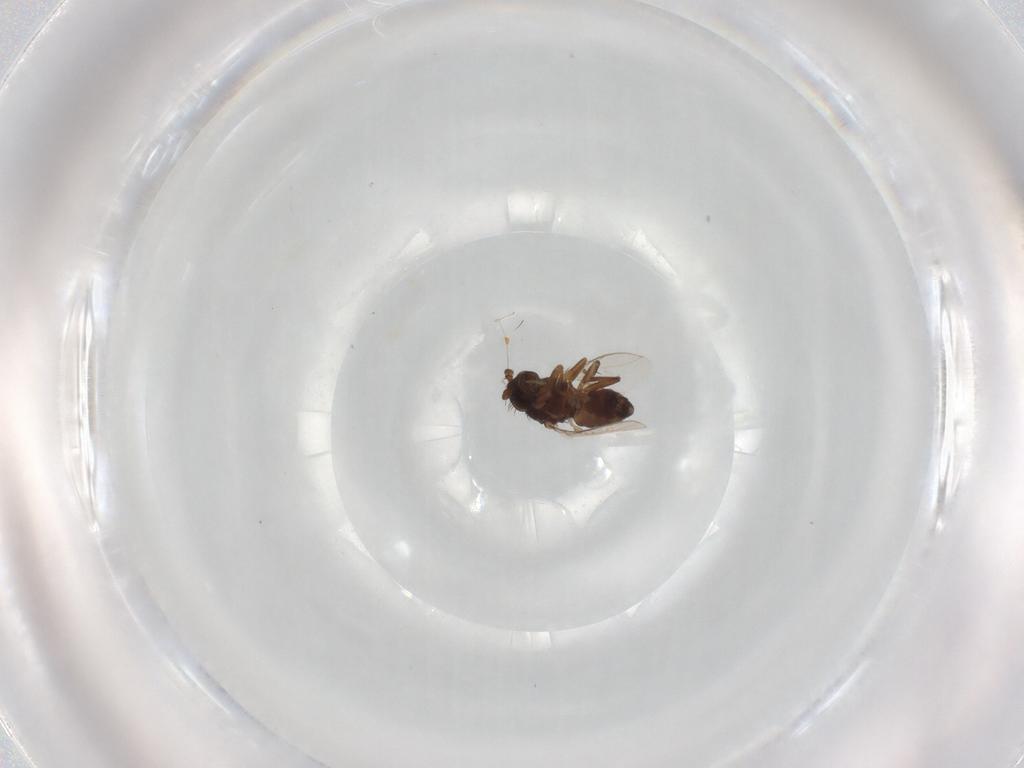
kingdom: Animalia
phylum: Arthropoda
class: Insecta
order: Diptera
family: Sphaeroceridae
